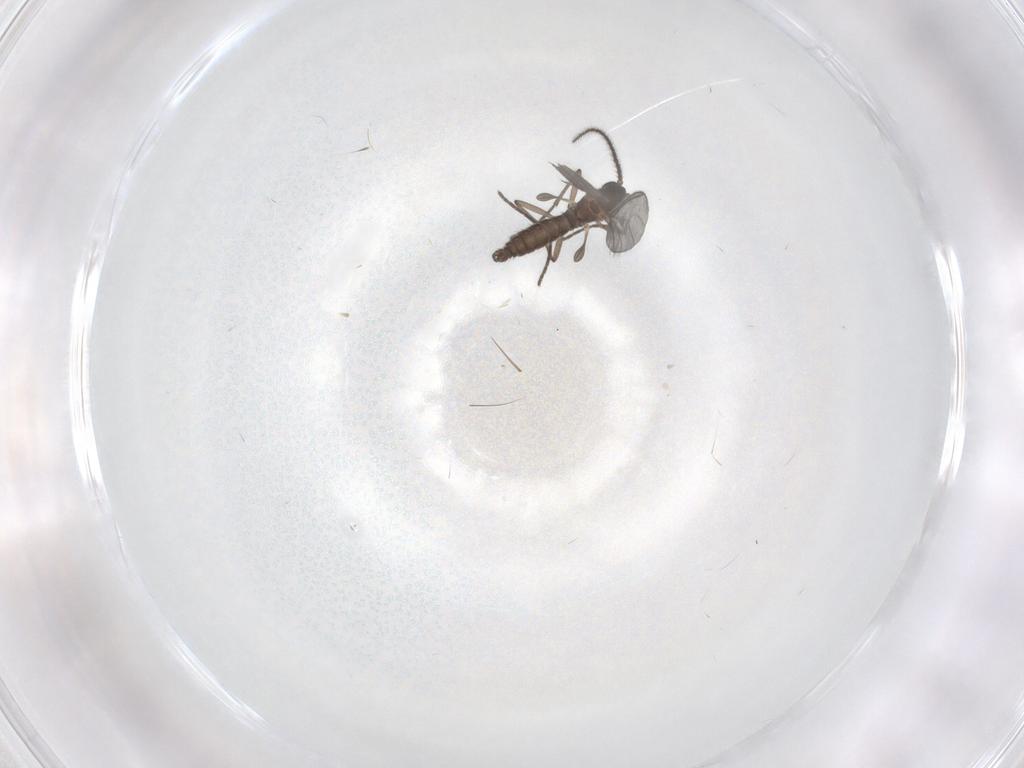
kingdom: Animalia
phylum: Arthropoda
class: Insecta
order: Diptera
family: Sciaridae
